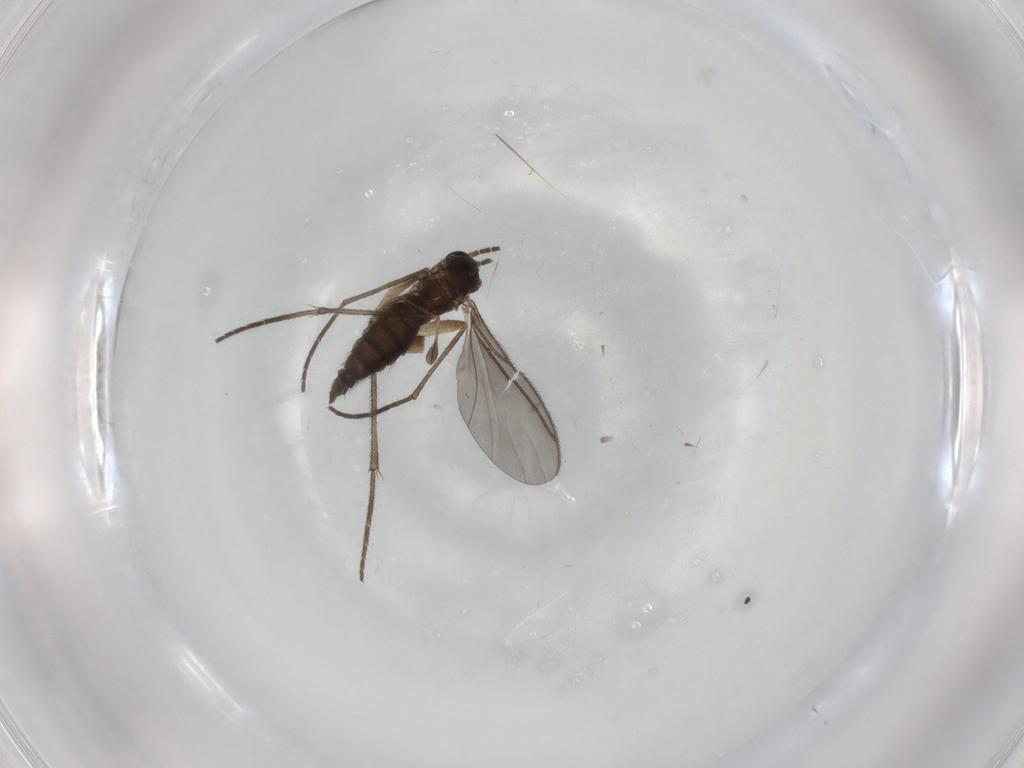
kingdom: Animalia
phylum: Arthropoda
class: Insecta
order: Diptera
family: Sciaridae
